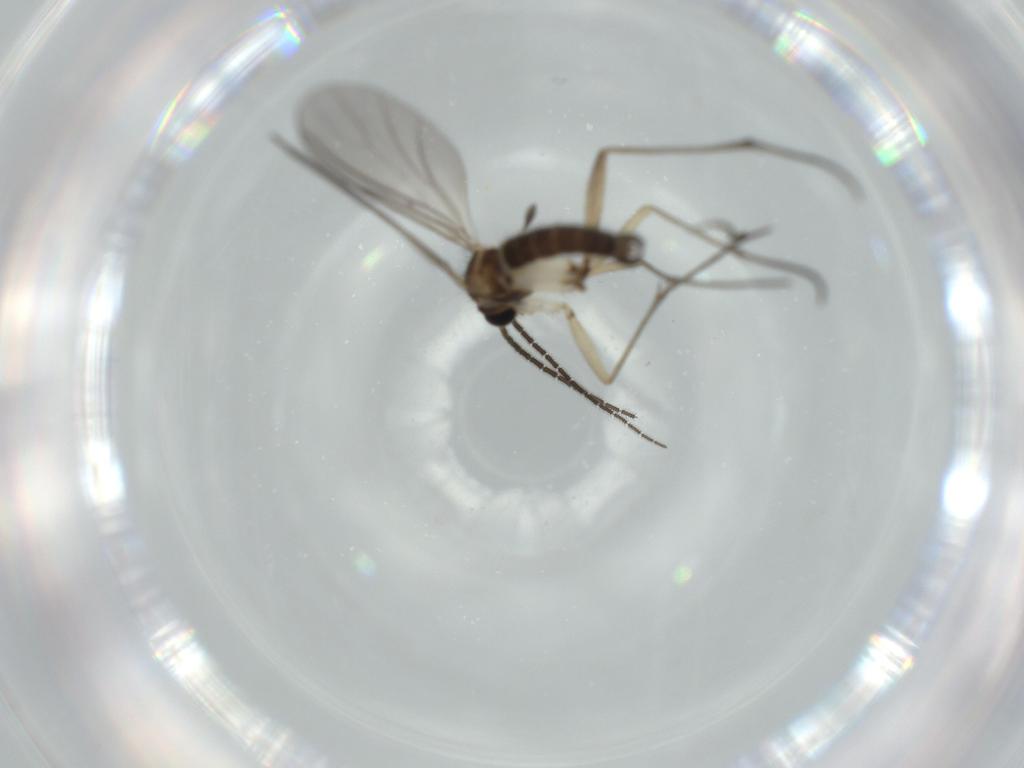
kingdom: Animalia
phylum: Arthropoda
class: Insecta
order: Diptera
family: Sciaridae
